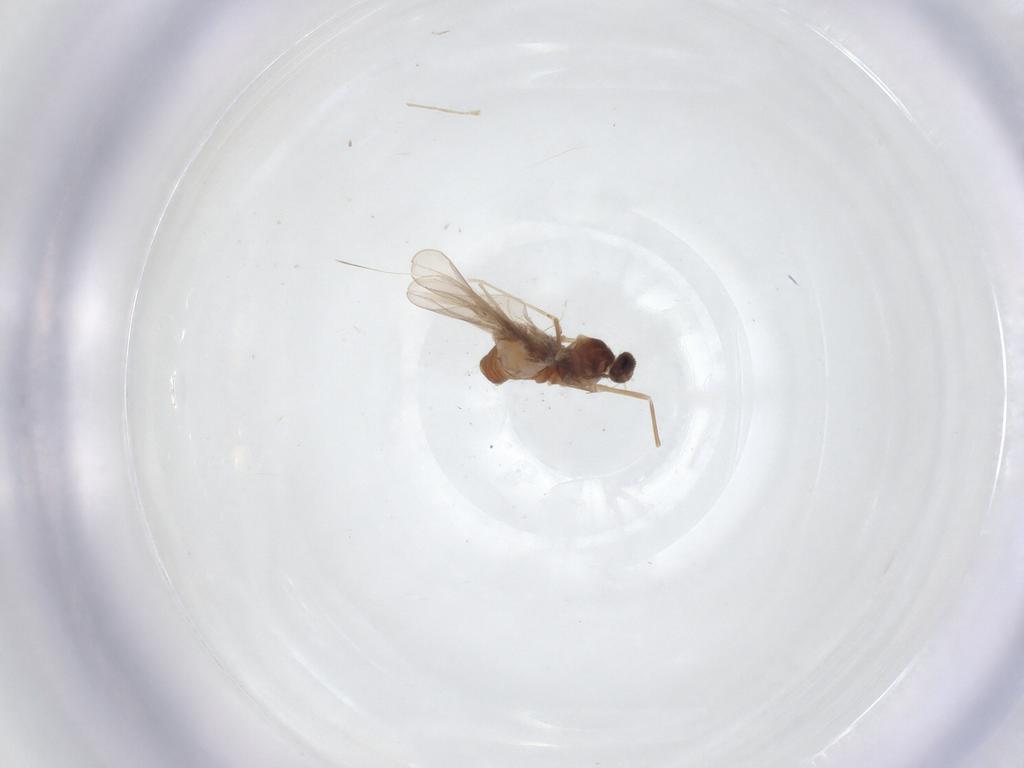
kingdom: Animalia
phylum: Arthropoda
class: Insecta
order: Diptera
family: Cecidomyiidae
